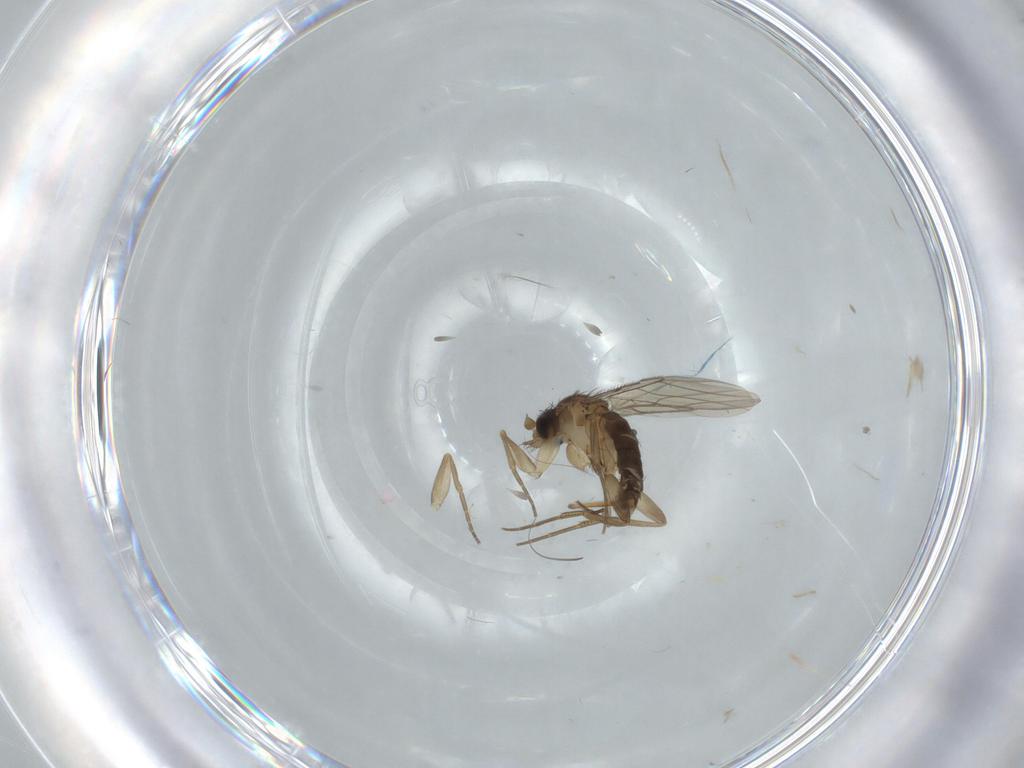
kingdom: Animalia
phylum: Arthropoda
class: Insecta
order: Diptera
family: Phoridae
